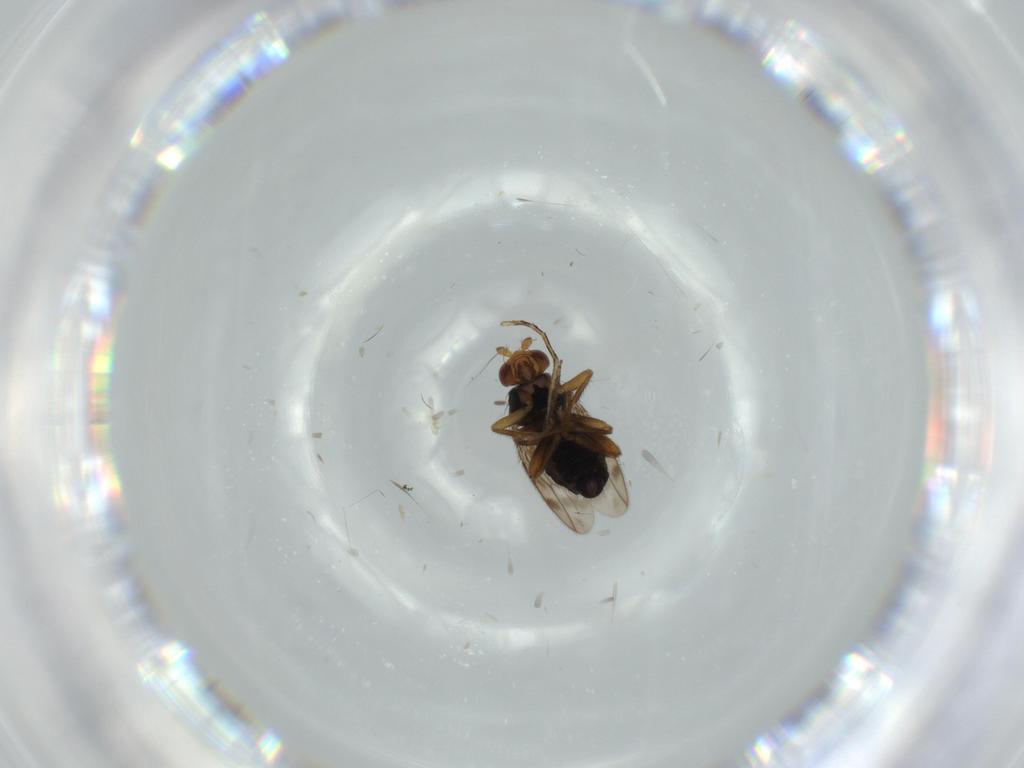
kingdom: Animalia
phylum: Arthropoda
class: Insecta
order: Diptera
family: Sphaeroceridae
